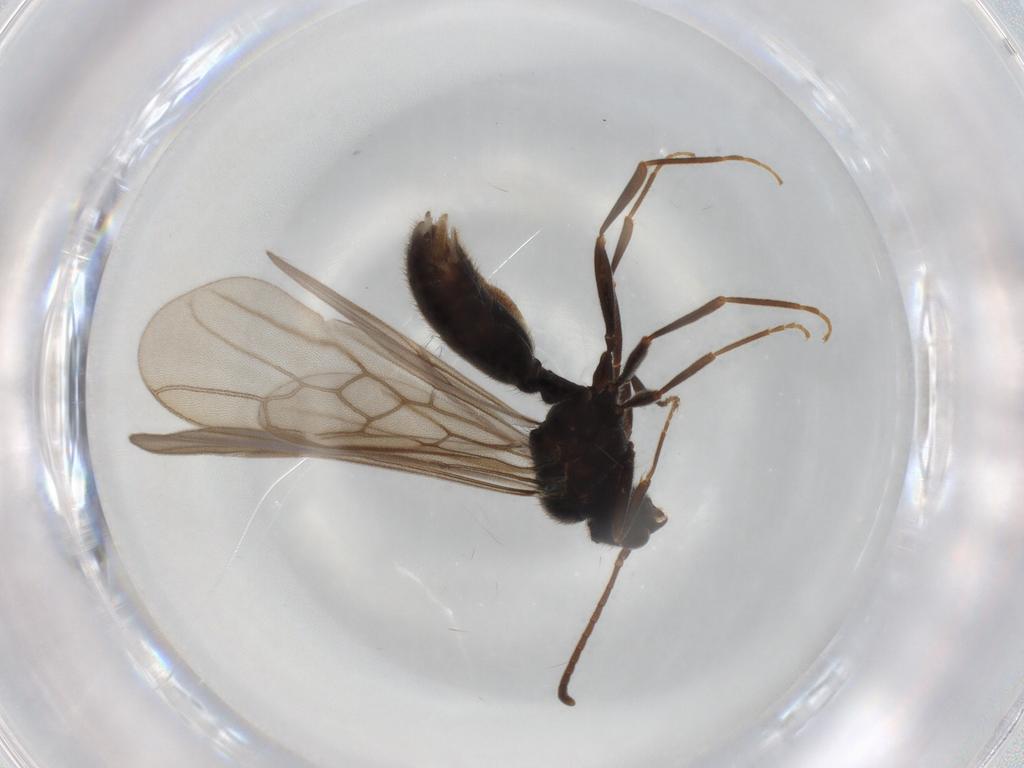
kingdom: Animalia
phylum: Arthropoda
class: Insecta
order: Hymenoptera
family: Formicidae
